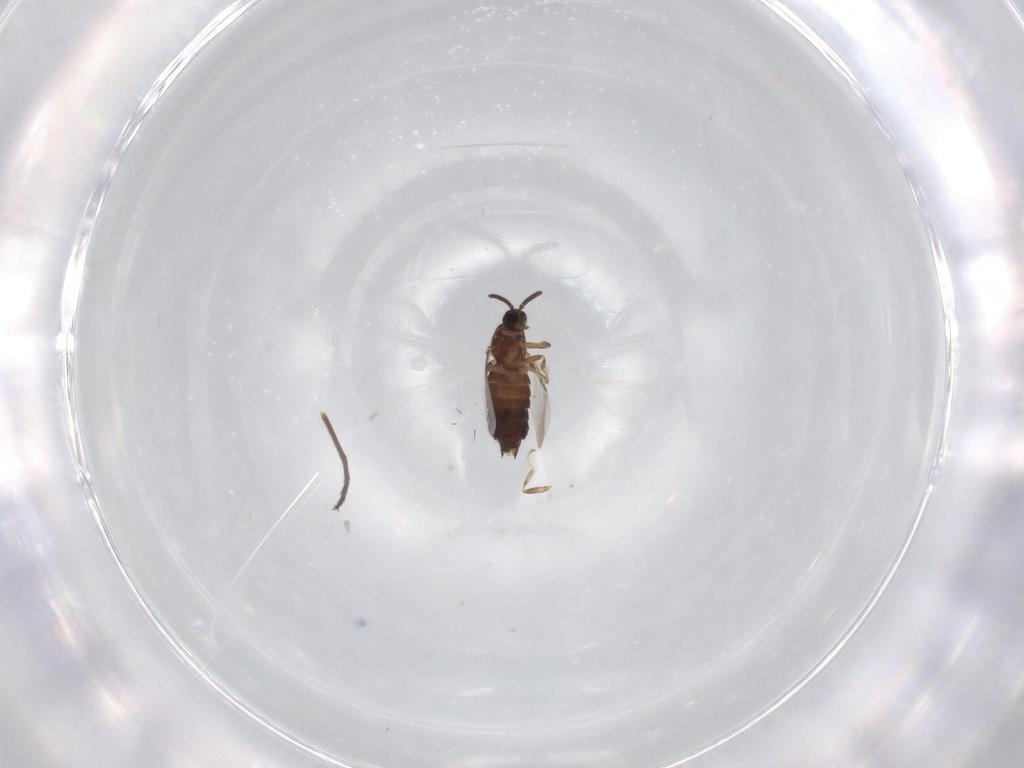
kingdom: Animalia
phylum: Arthropoda
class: Insecta
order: Diptera
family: Dolichopodidae
